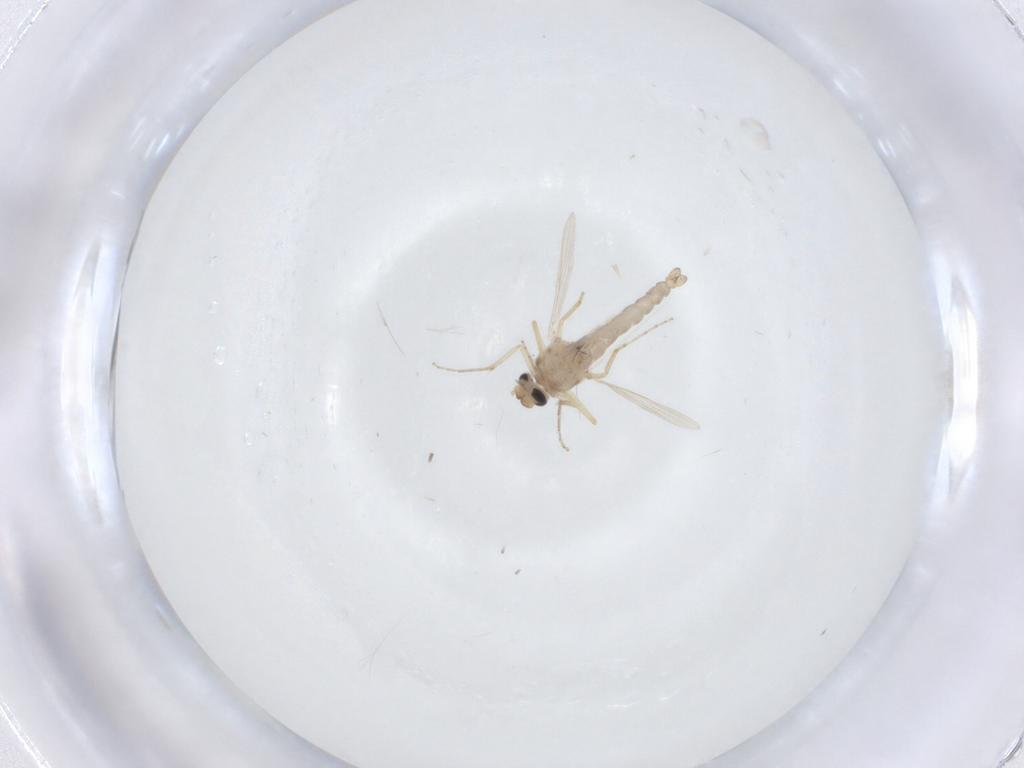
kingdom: Animalia
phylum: Arthropoda
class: Insecta
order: Diptera
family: Ceratopogonidae
